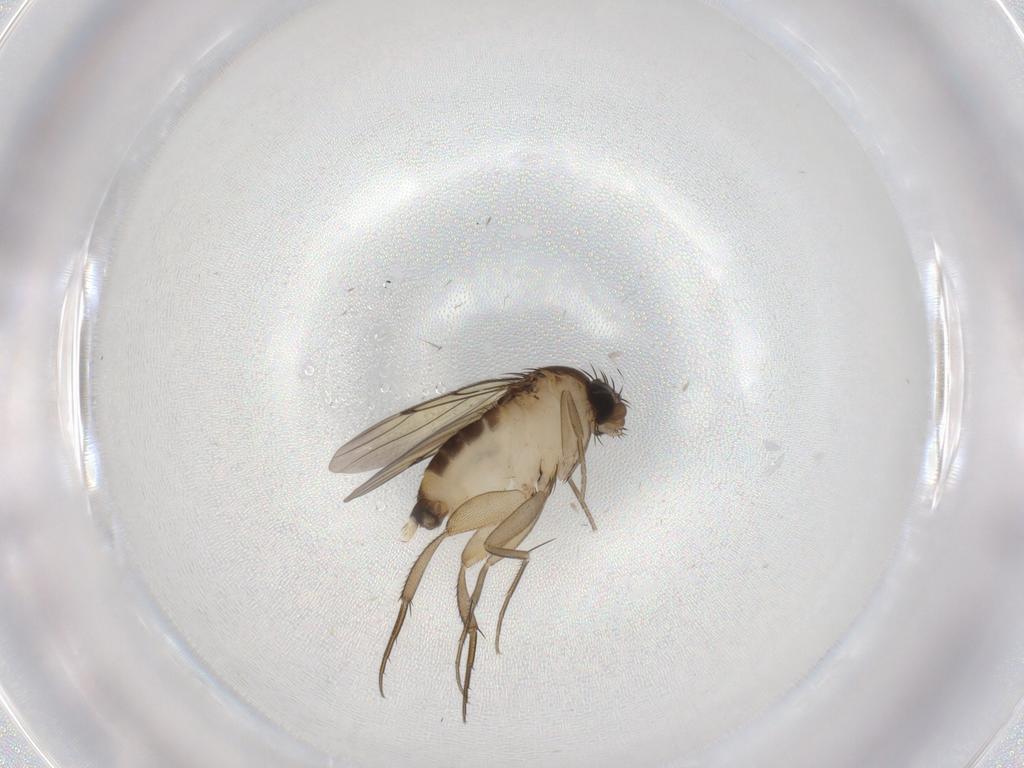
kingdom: Animalia
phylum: Arthropoda
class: Insecta
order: Diptera
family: Chironomidae
